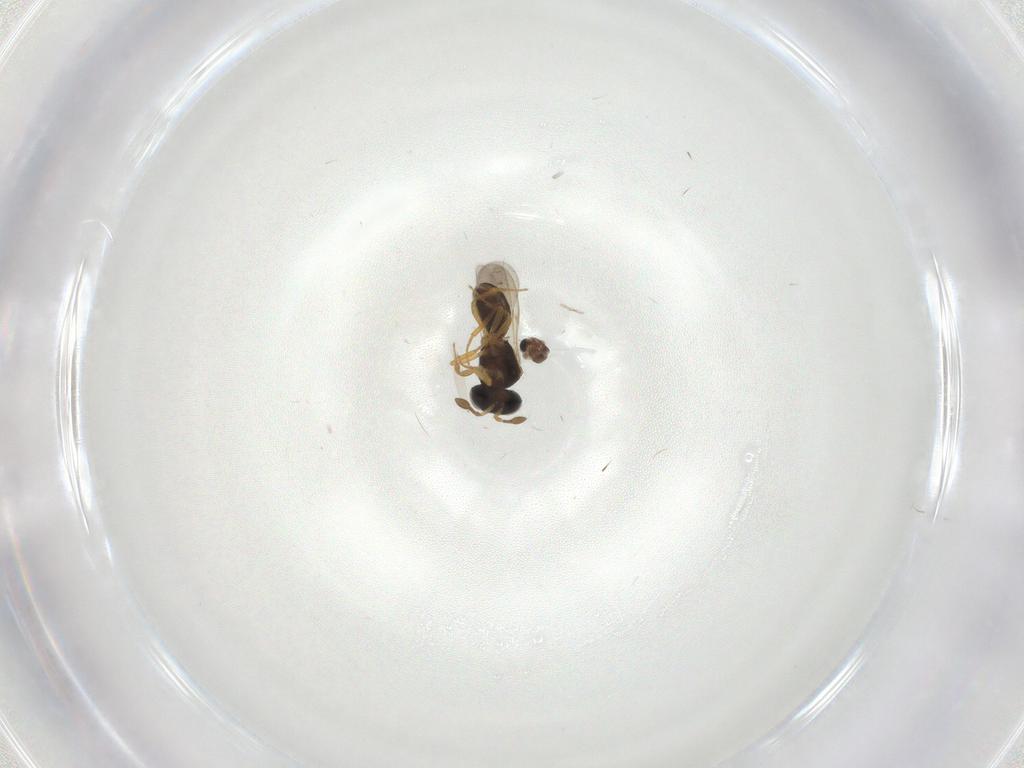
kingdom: Animalia
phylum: Arthropoda
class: Insecta
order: Hymenoptera
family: Scelionidae
